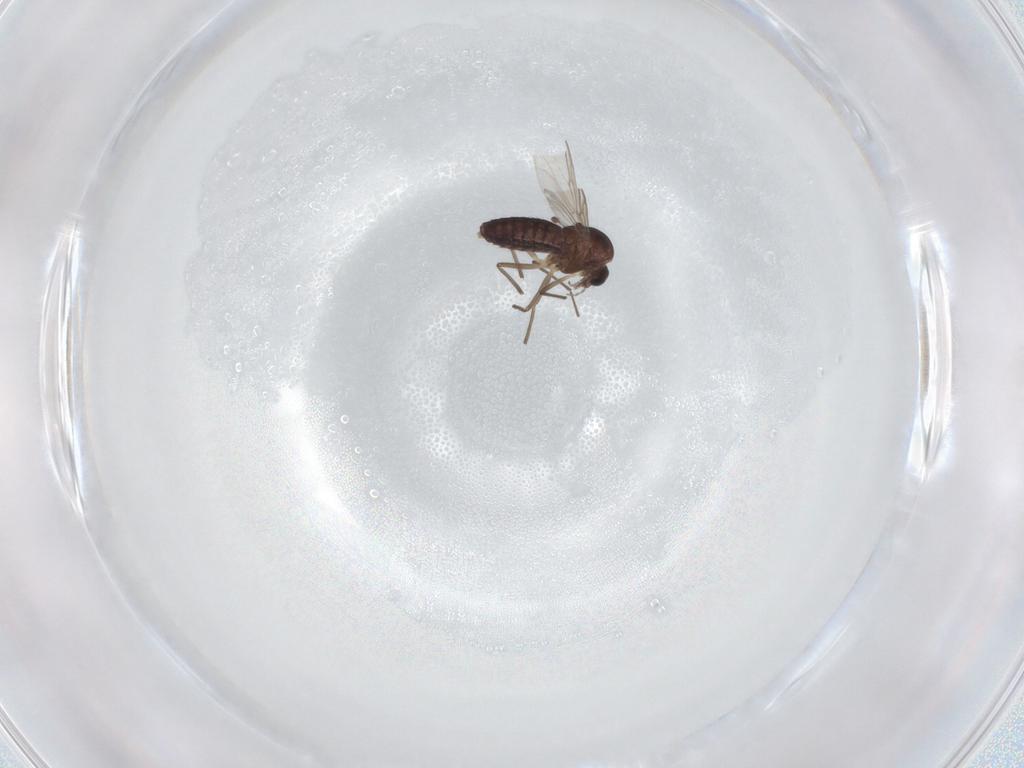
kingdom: Animalia
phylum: Arthropoda
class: Insecta
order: Diptera
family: Chironomidae
